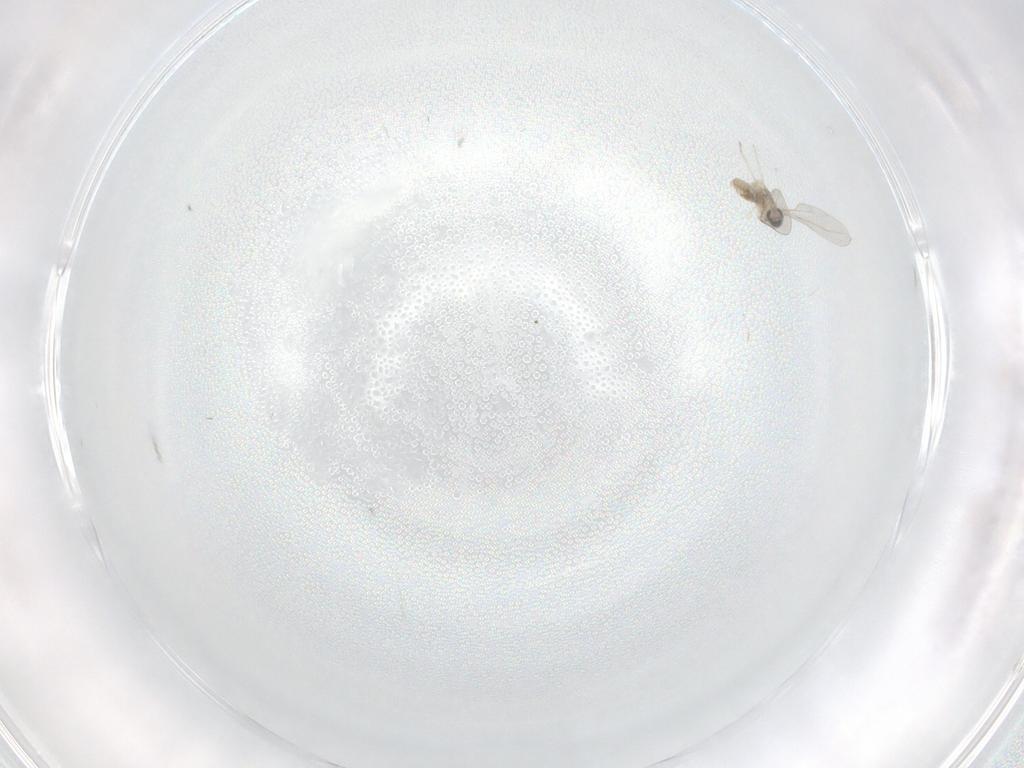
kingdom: Animalia
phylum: Arthropoda
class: Insecta
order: Diptera
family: Cecidomyiidae
